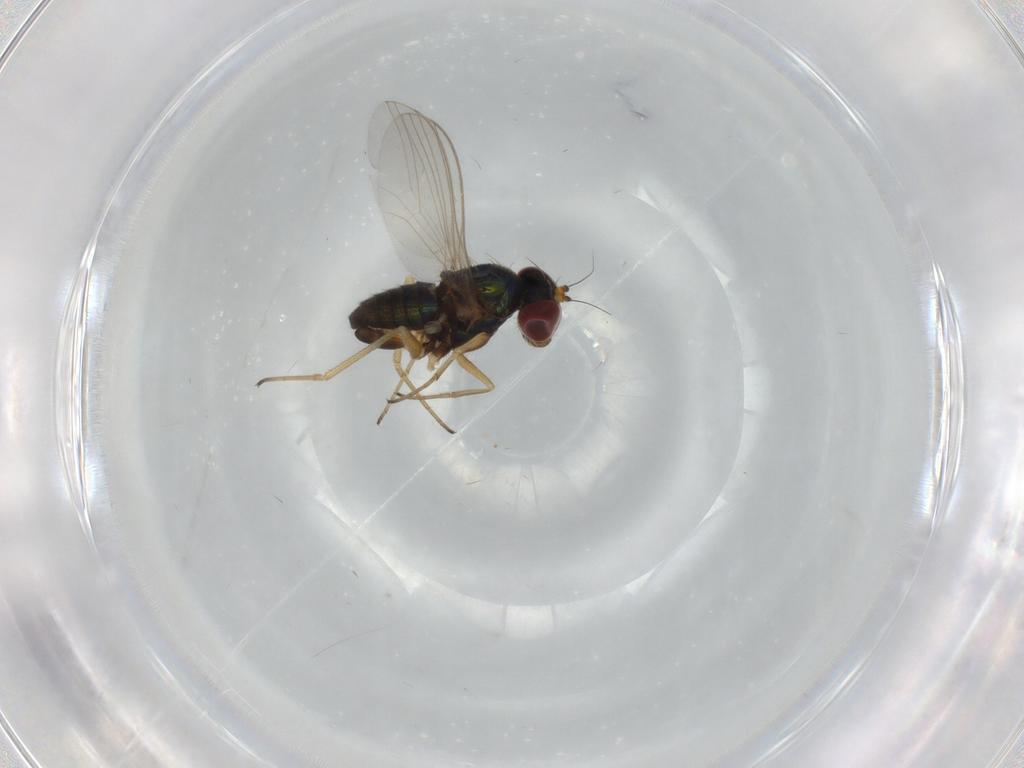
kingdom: Animalia
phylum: Arthropoda
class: Insecta
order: Diptera
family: Dolichopodidae
